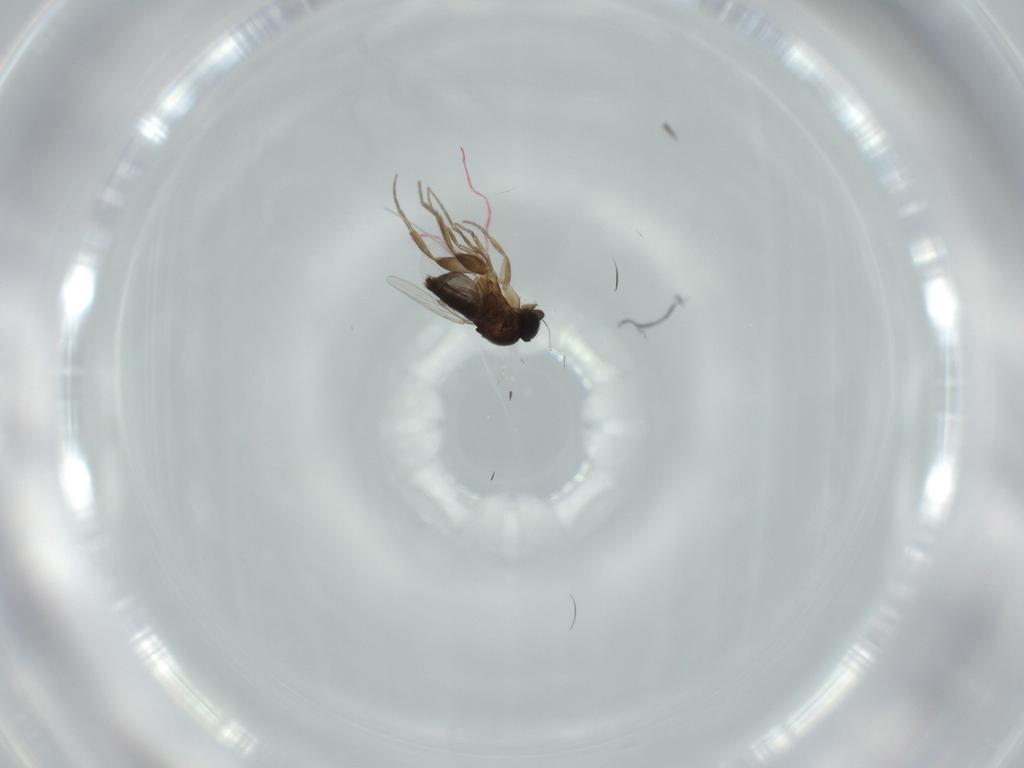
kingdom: Animalia
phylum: Arthropoda
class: Insecta
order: Diptera
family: Phoridae
